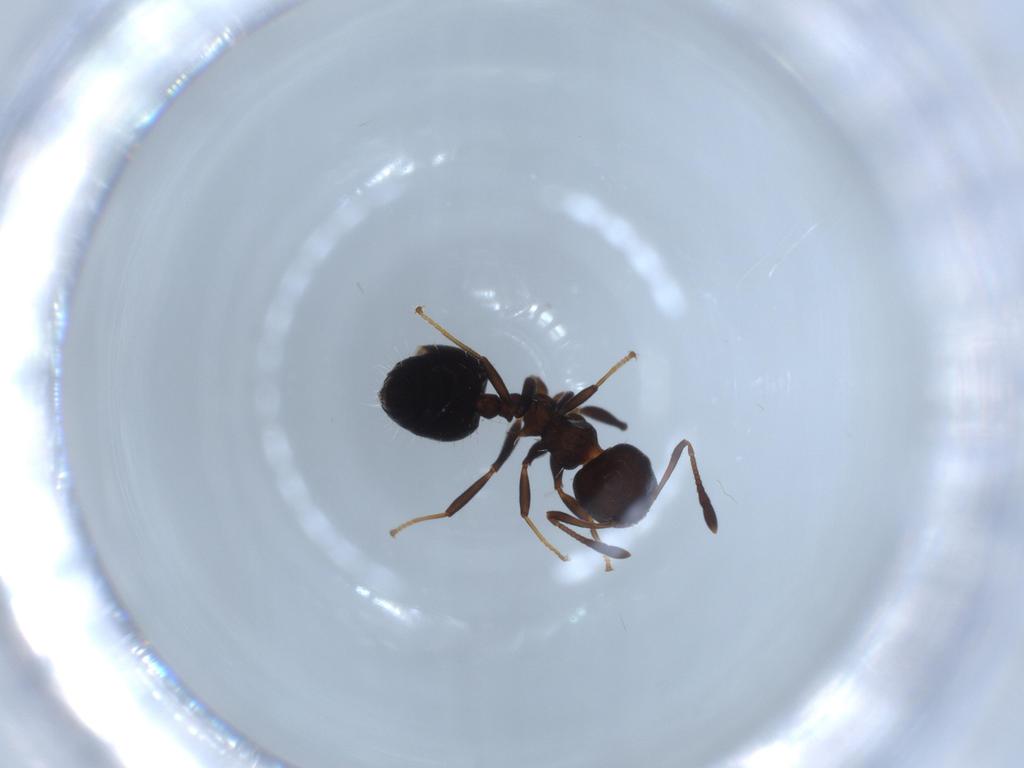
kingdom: Animalia
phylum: Arthropoda
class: Insecta
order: Hymenoptera
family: Formicidae
